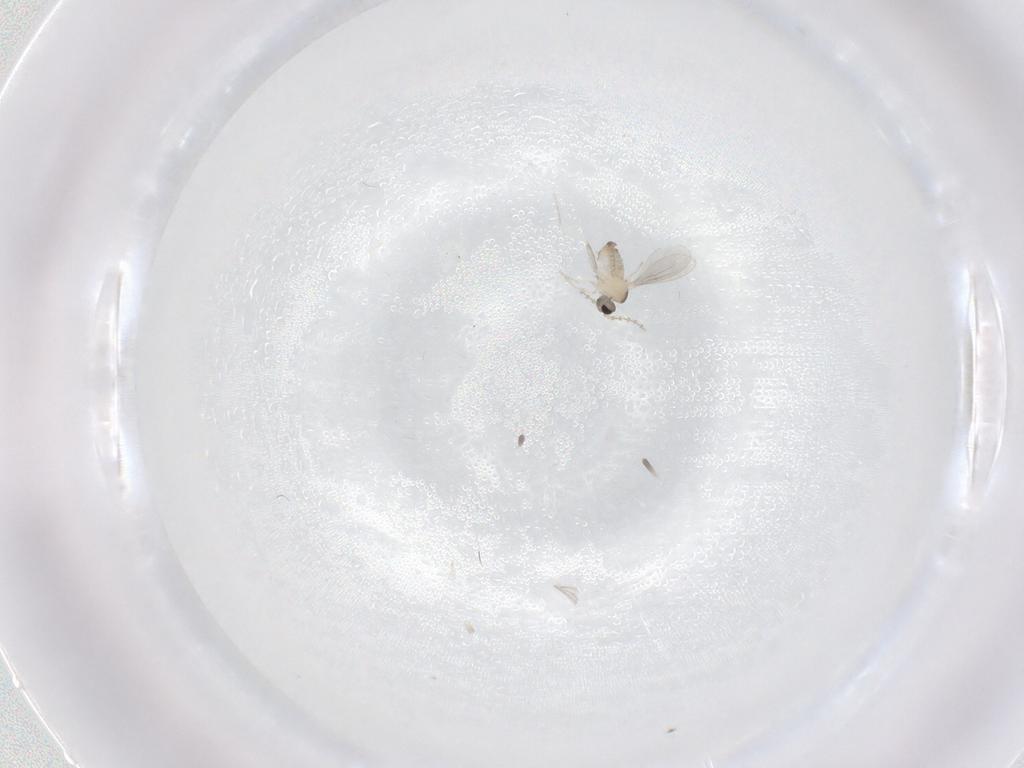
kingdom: Animalia
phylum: Arthropoda
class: Insecta
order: Diptera
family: Cecidomyiidae
